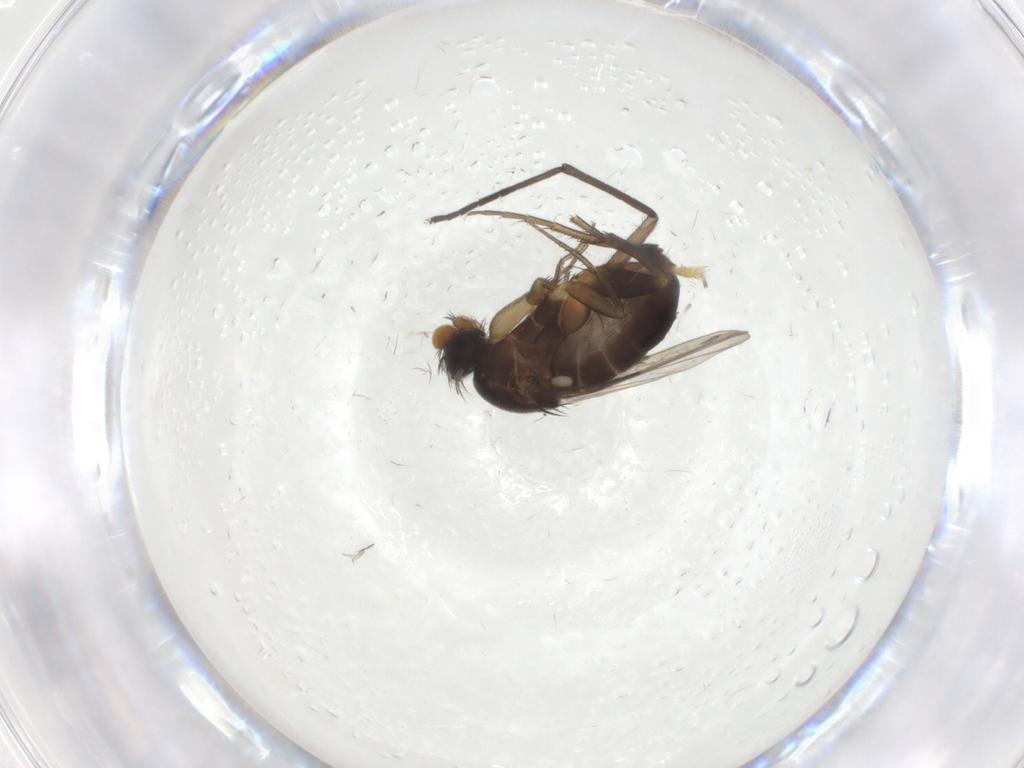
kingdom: Animalia
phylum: Arthropoda
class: Insecta
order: Diptera
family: Phoridae
